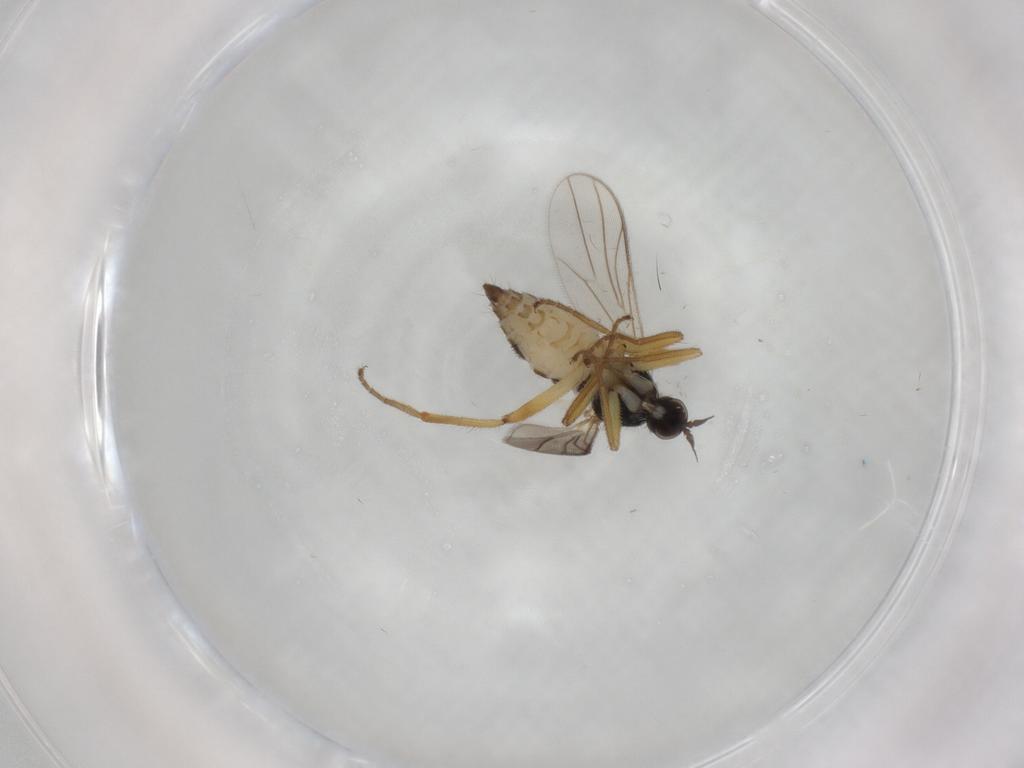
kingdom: Animalia
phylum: Arthropoda
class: Insecta
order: Diptera
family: Hybotidae
